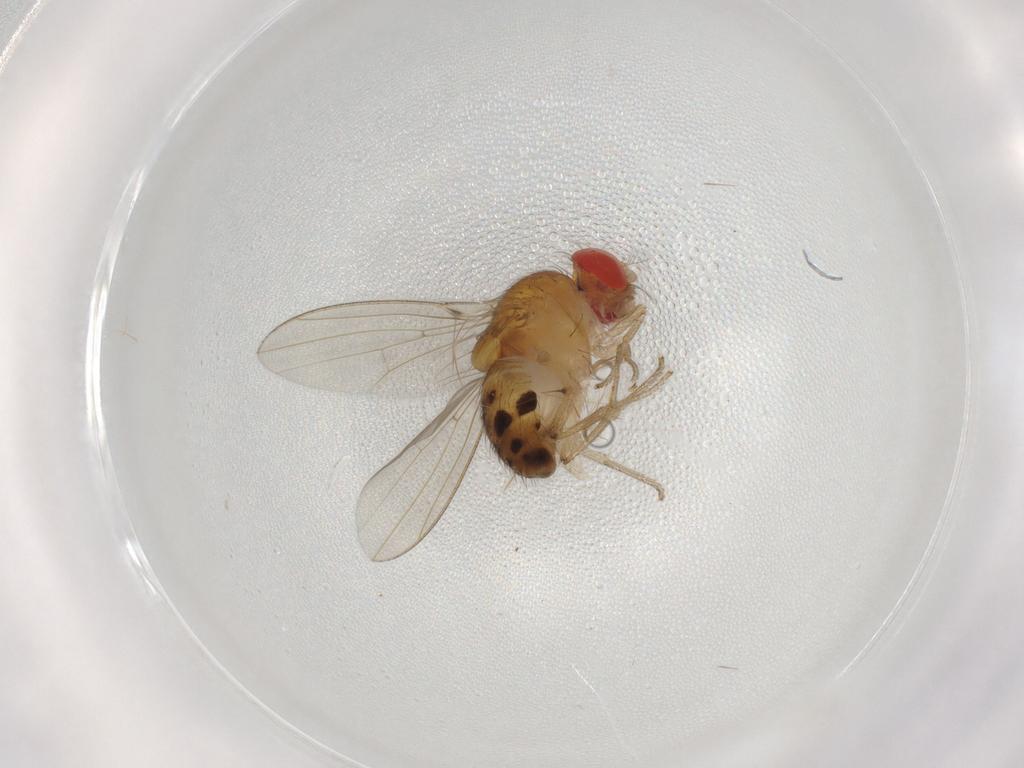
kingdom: Animalia
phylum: Arthropoda
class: Insecta
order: Diptera
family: Drosophilidae
